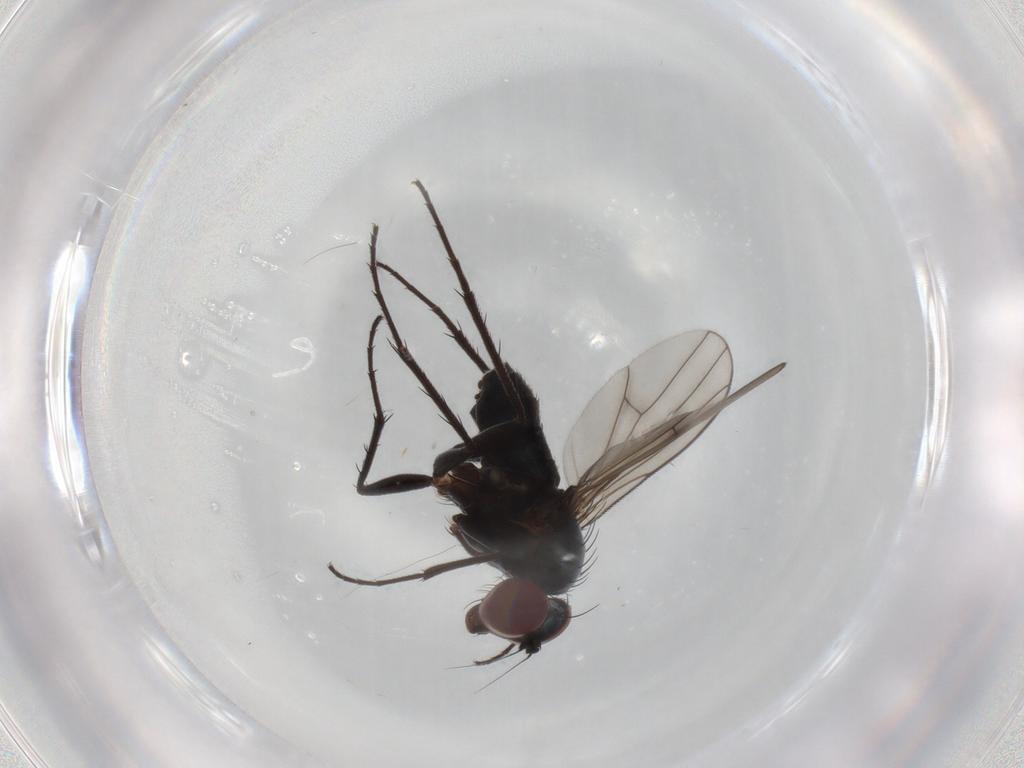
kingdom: Animalia
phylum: Arthropoda
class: Insecta
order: Diptera
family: Dolichopodidae
